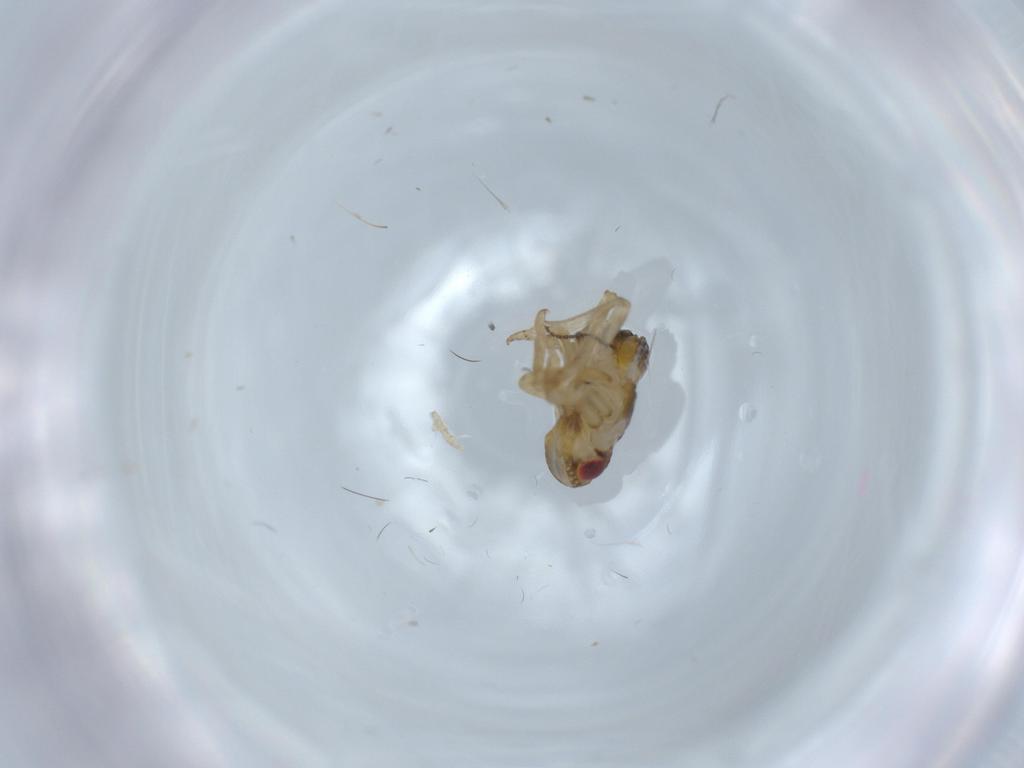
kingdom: Animalia
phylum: Arthropoda
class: Insecta
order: Hemiptera
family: Issidae
